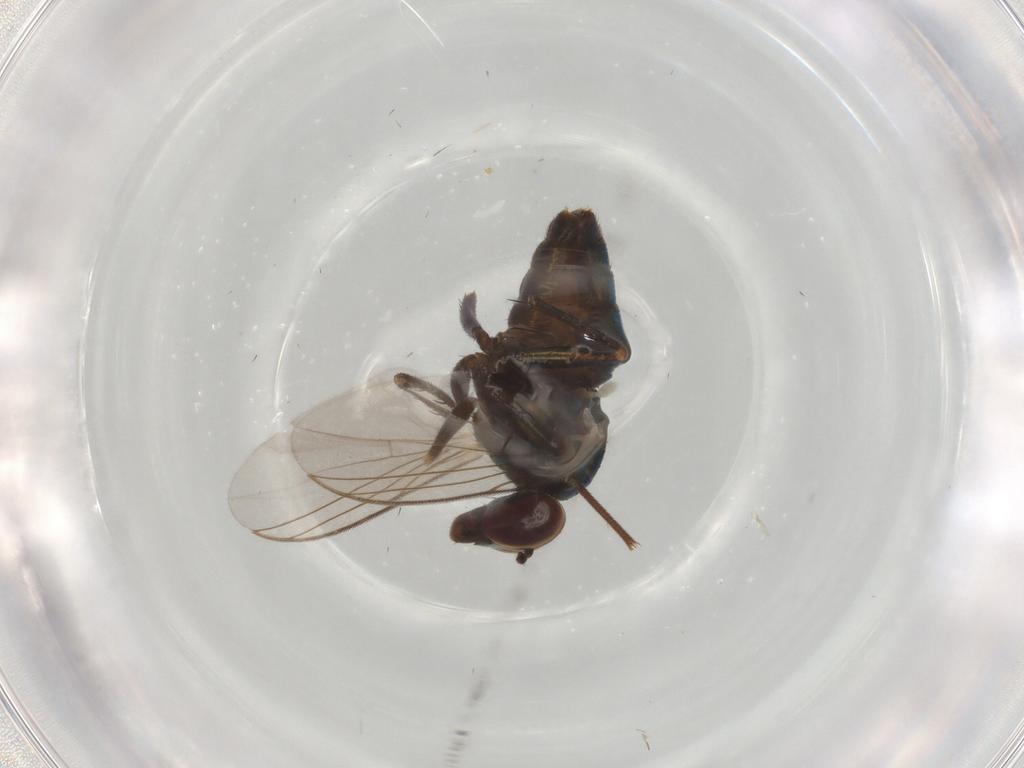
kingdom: Animalia
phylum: Arthropoda
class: Insecta
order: Diptera
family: Dolichopodidae
